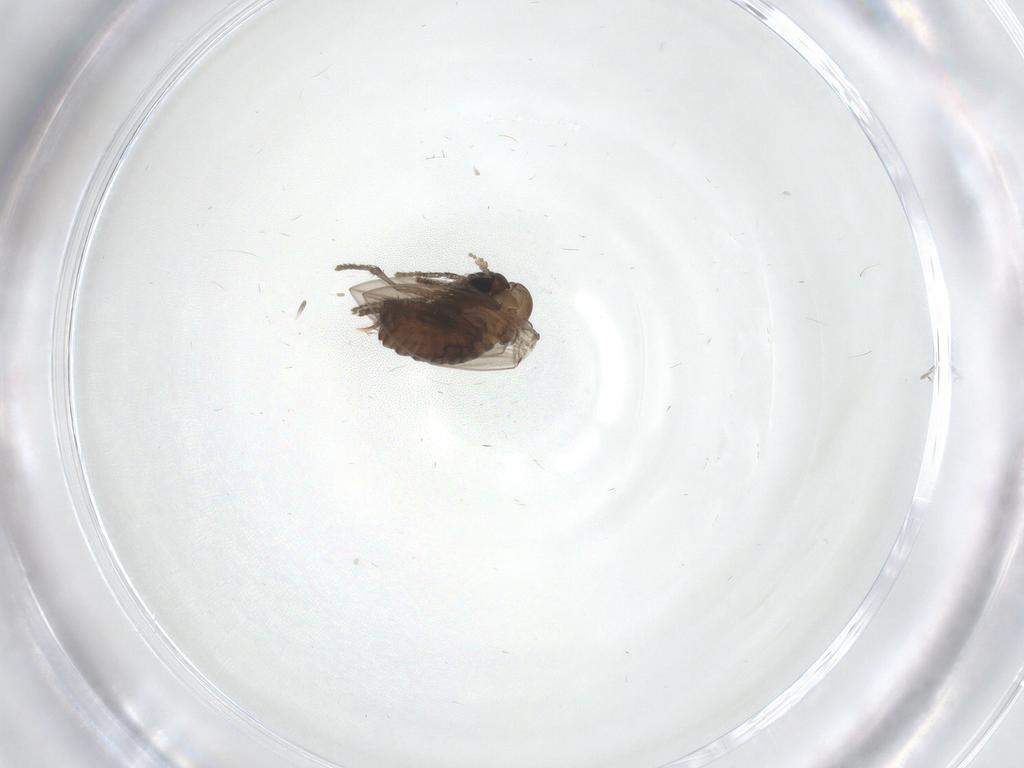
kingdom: Animalia
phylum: Arthropoda
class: Insecta
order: Diptera
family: Psychodidae
